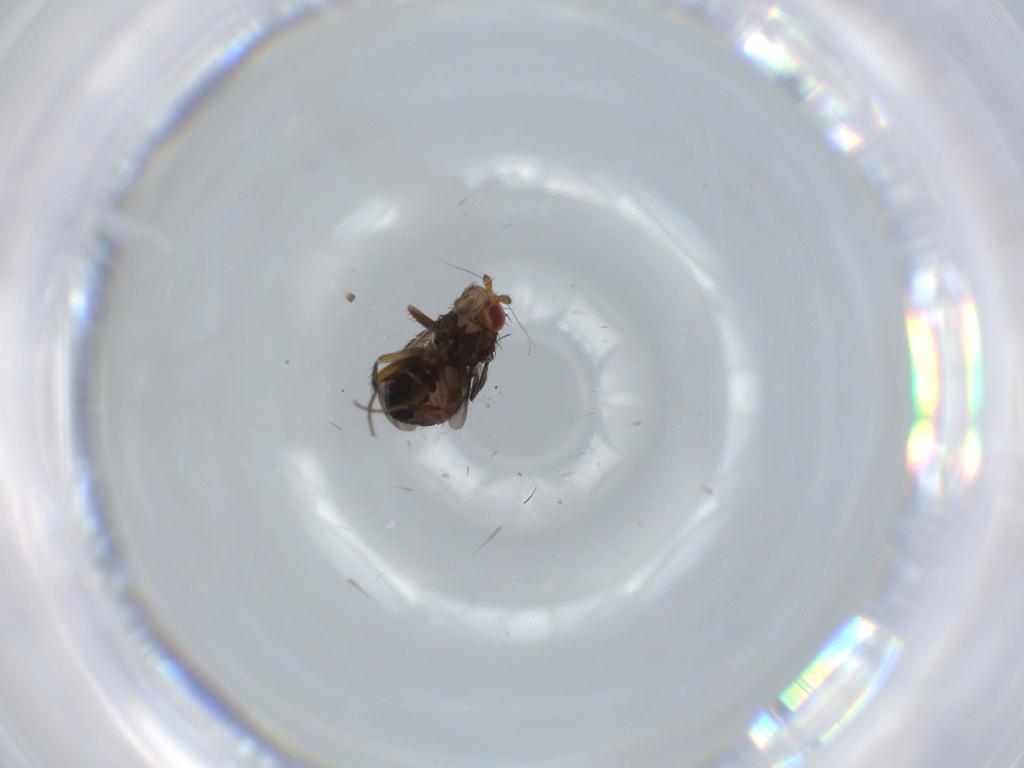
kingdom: Animalia
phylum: Arthropoda
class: Insecta
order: Diptera
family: Sphaeroceridae
